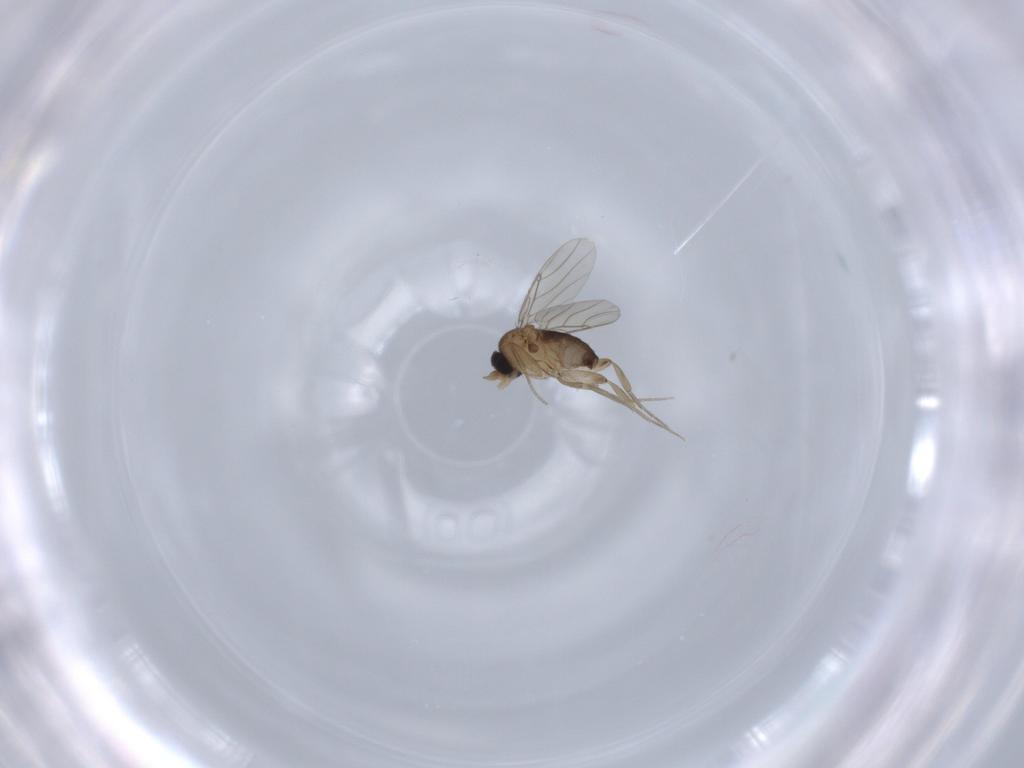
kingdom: Animalia
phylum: Arthropoda
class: Insecta
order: Diptera
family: Phoridae
